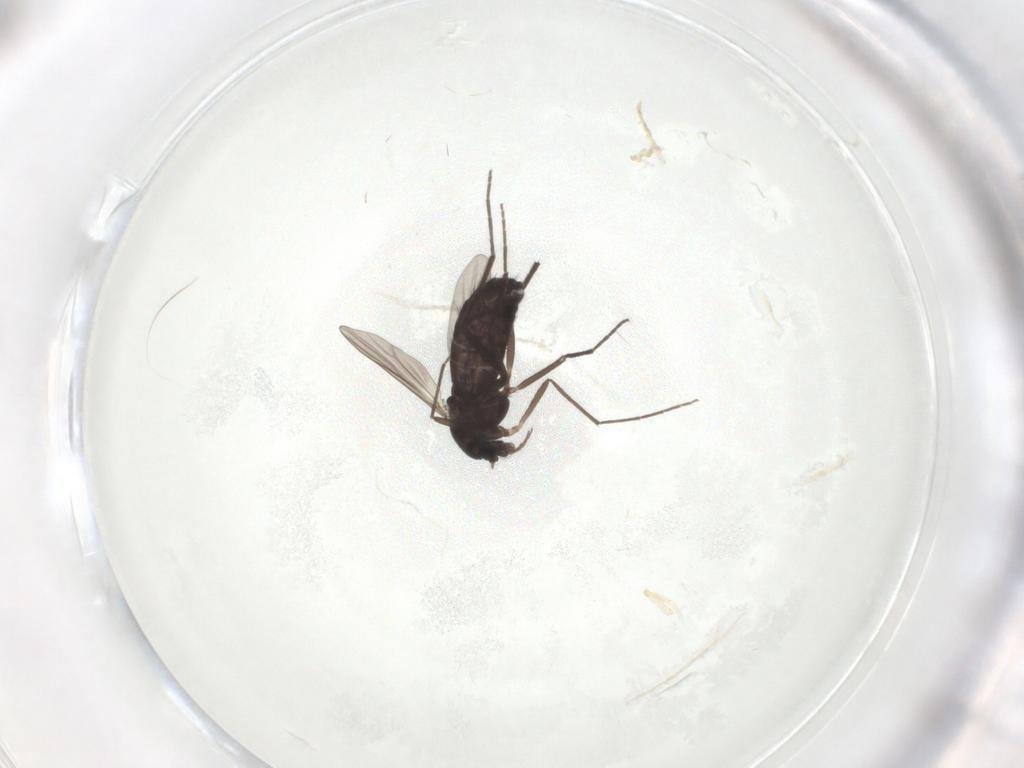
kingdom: Animalia
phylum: Arthropoda
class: Insecta
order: Diptera
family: Chironomidae
